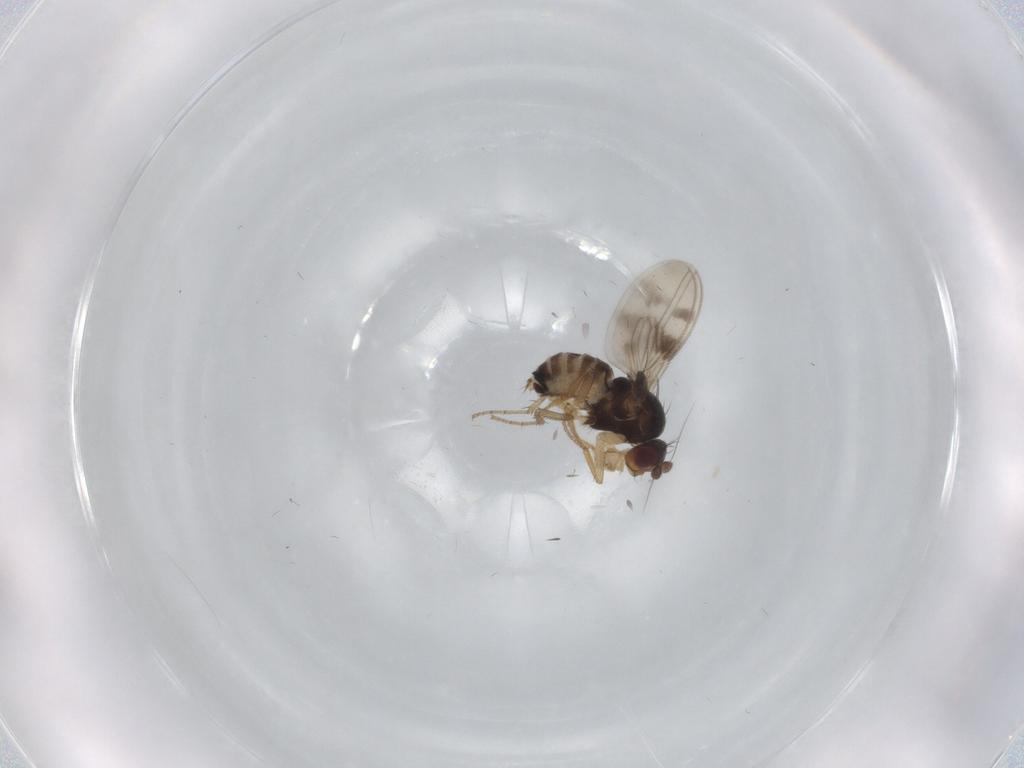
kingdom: Animalia
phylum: Arthropoda
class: Insecta
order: Diptera
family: Sphaeroceridae
